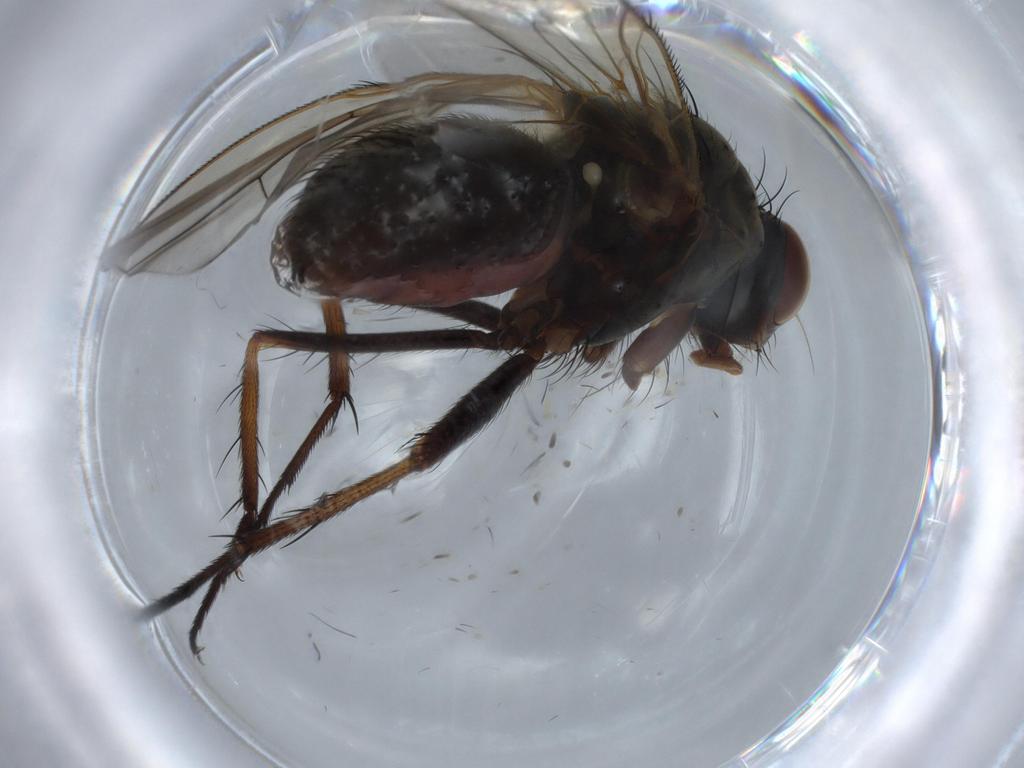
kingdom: Animalia
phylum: Arthropoda
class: Insecta
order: Diptera
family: Anthomyiidae
